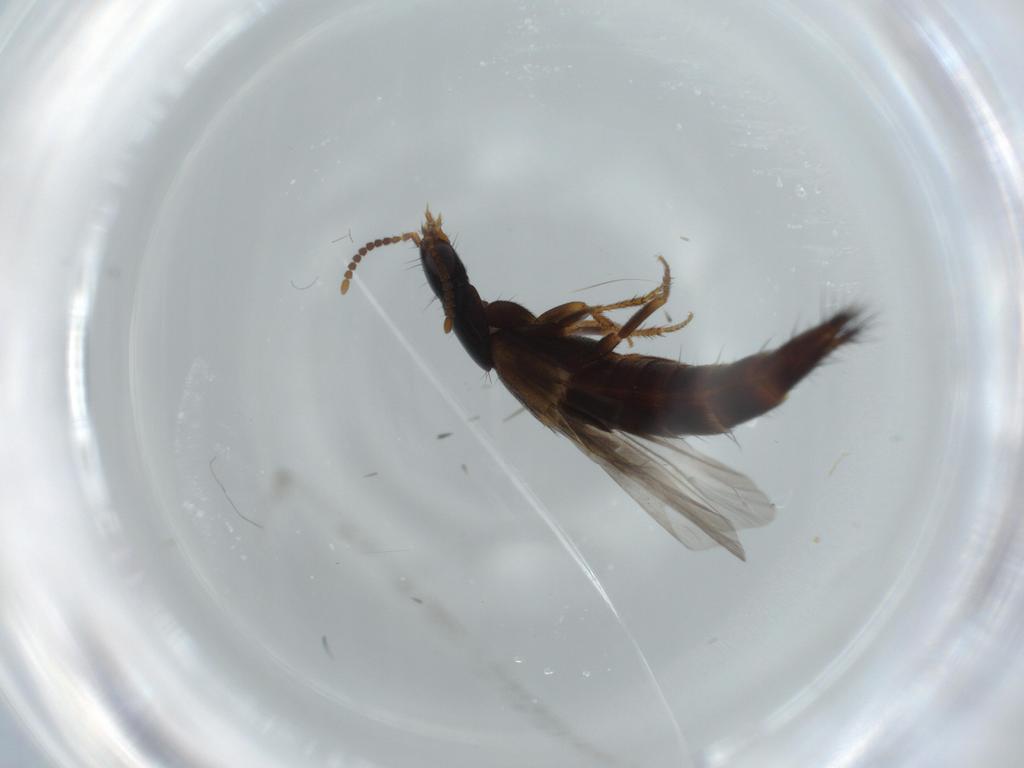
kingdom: Animalia
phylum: Arthropoda
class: Insecta
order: Coleoptera
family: Staphylinidae
